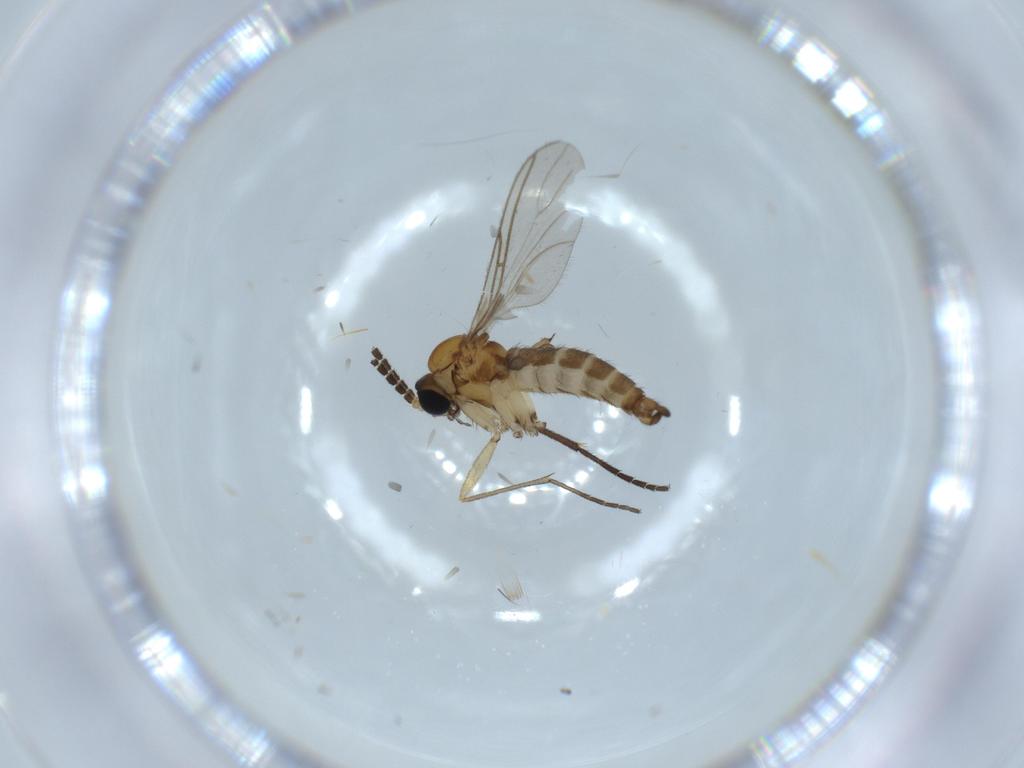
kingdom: Animalia
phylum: Arthropoda
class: Insecta
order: Diptera
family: Sciaridae
